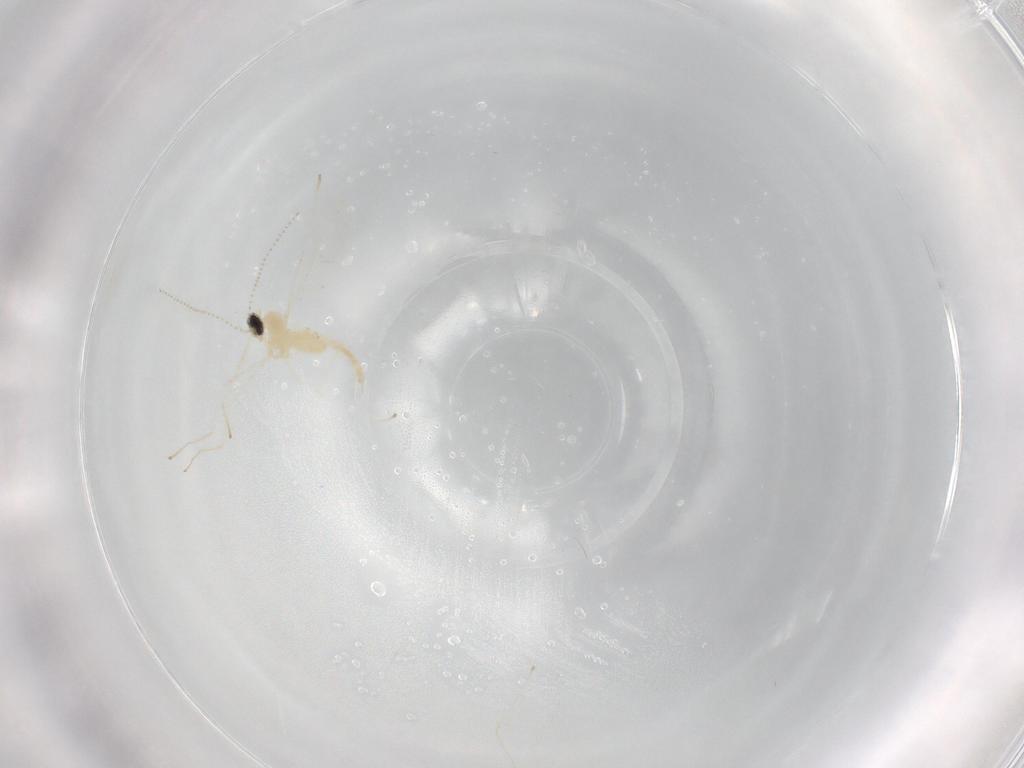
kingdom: Animalia
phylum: Arthropoda
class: Insecta
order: Diptera
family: Cecidomyiidae
